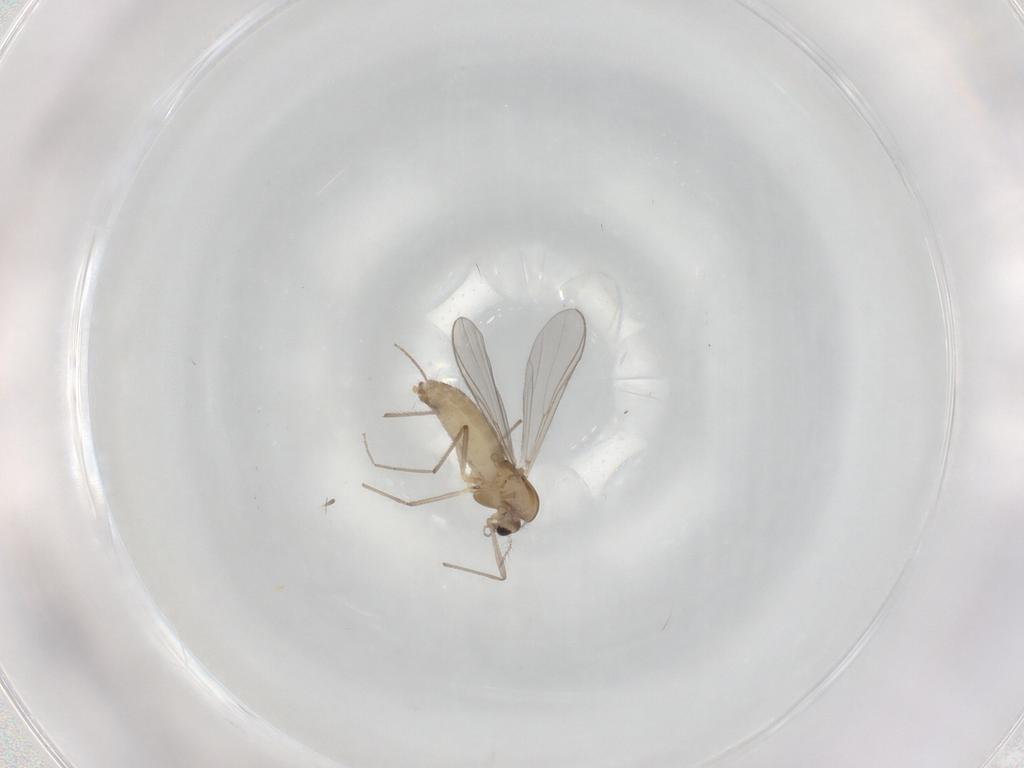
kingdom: Animalia
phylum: Arthropoda
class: Insecta
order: Diptera
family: Chironomidae
